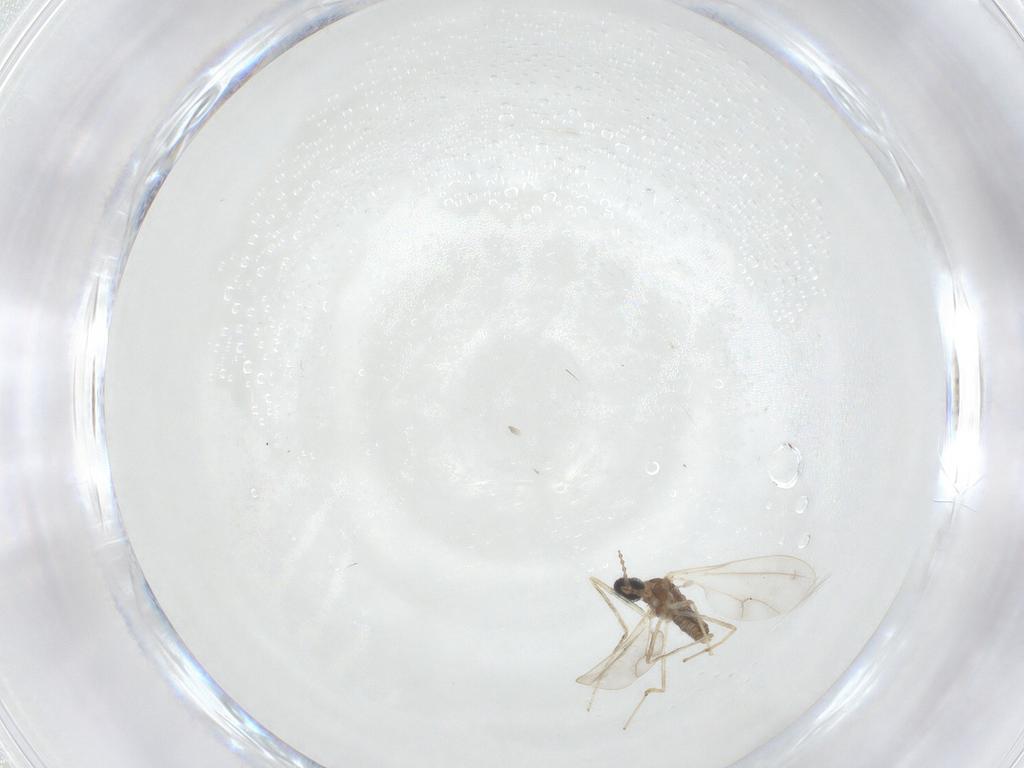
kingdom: Animalia
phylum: Arthropoda
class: Insecta
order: Diptera
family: Cecidomyiidae
